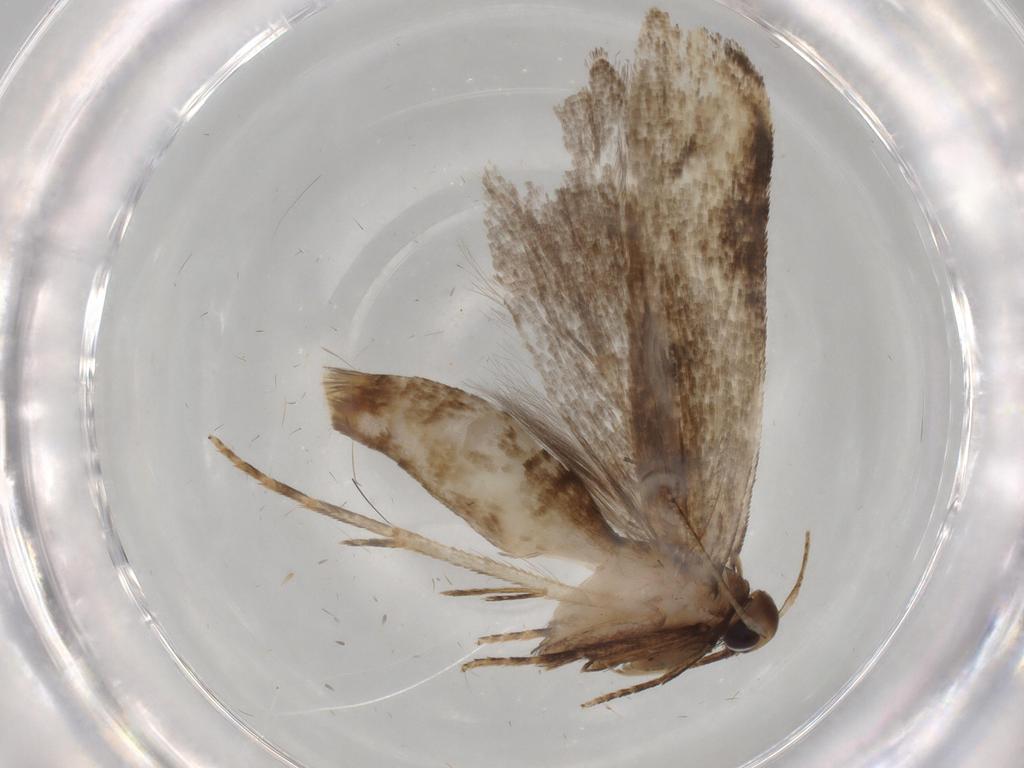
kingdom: Animalia
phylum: Arthropoda
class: Insecta
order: Lepidoptera
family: Gelechiidae
